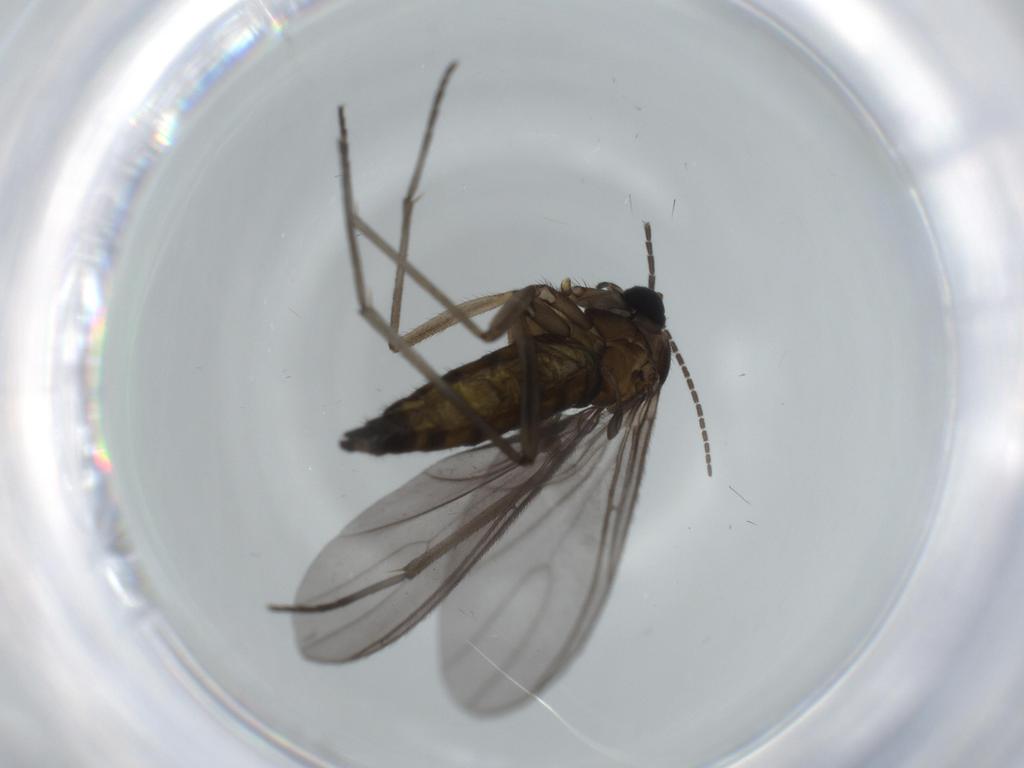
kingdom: Animalia
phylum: Arthropoda
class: Insecta
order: Diptera
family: Sciaridae
